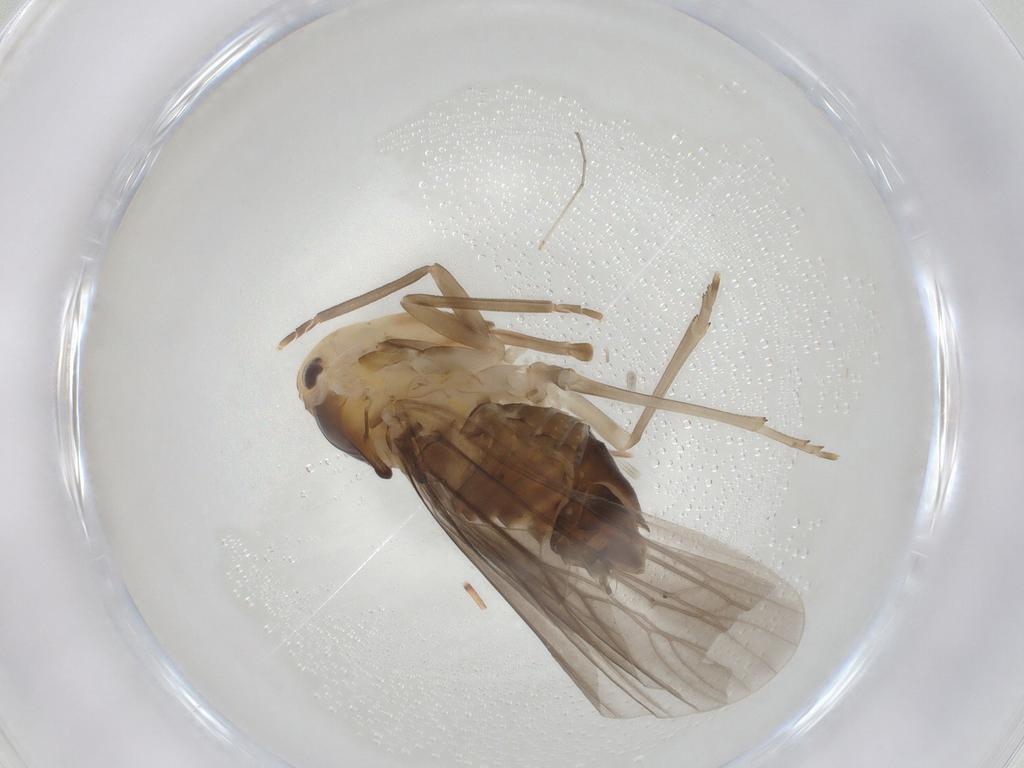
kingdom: Animalia
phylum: Arthropoda
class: Insecta
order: Hemiptera
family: Derbidae
